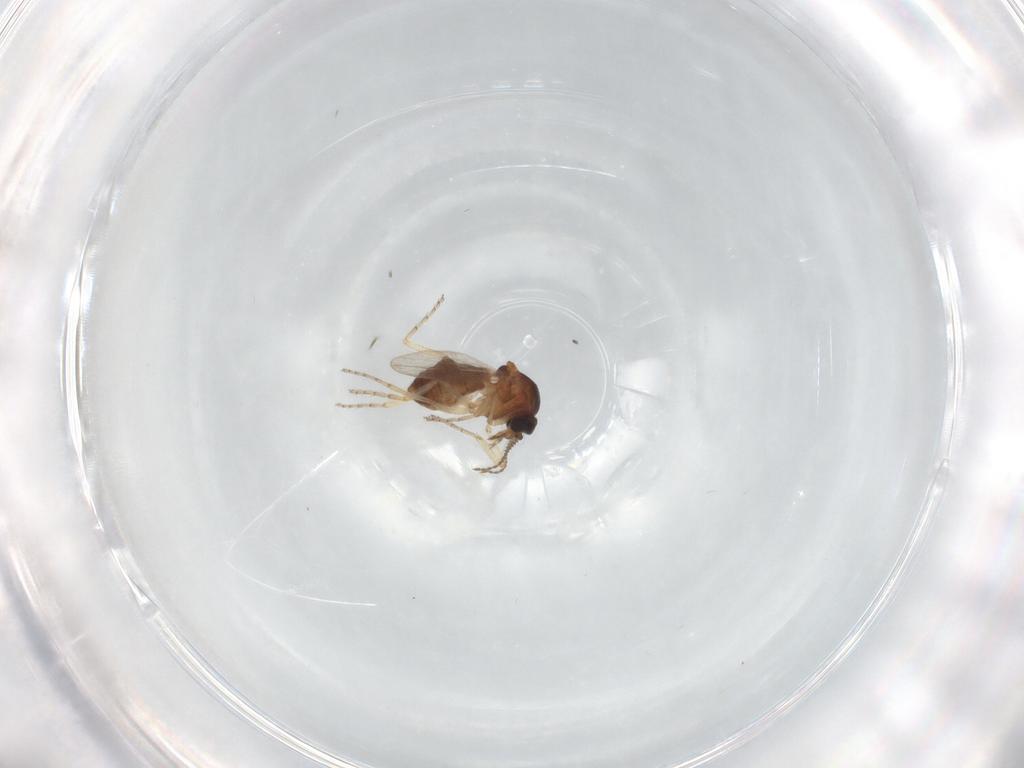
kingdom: Animalia
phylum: Arthropoda
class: Insecta
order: Diptera
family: Ceratopogonidae
